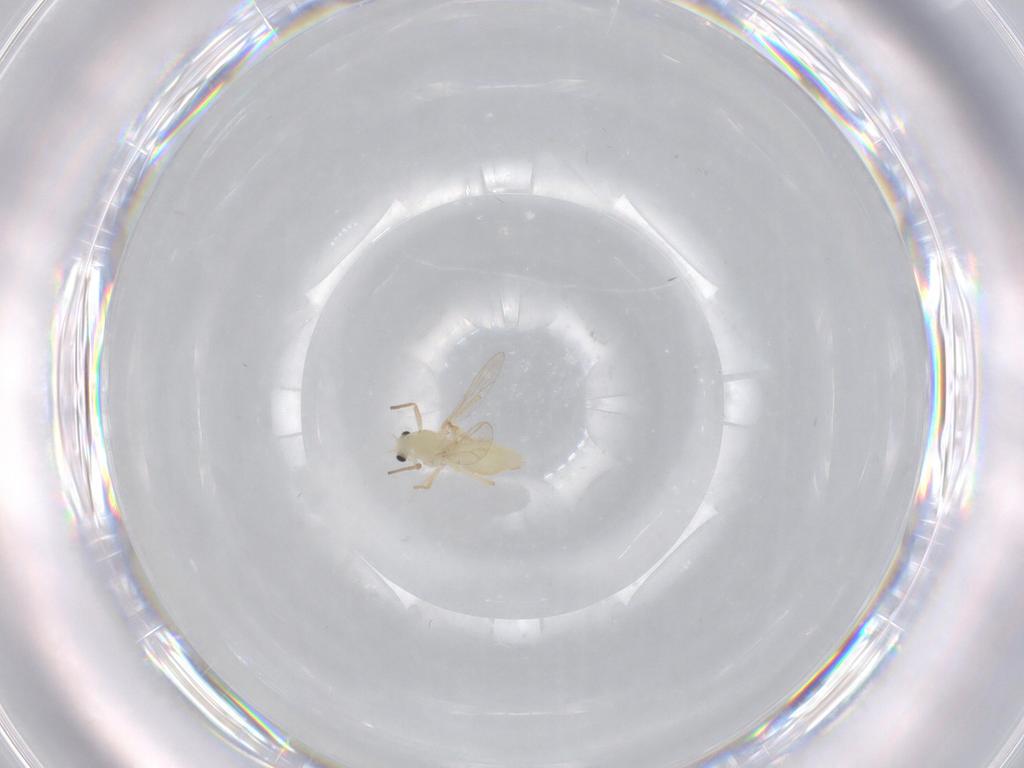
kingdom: Animalia
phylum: Arthropoda
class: Insecta
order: Diptera
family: Chironomidae
